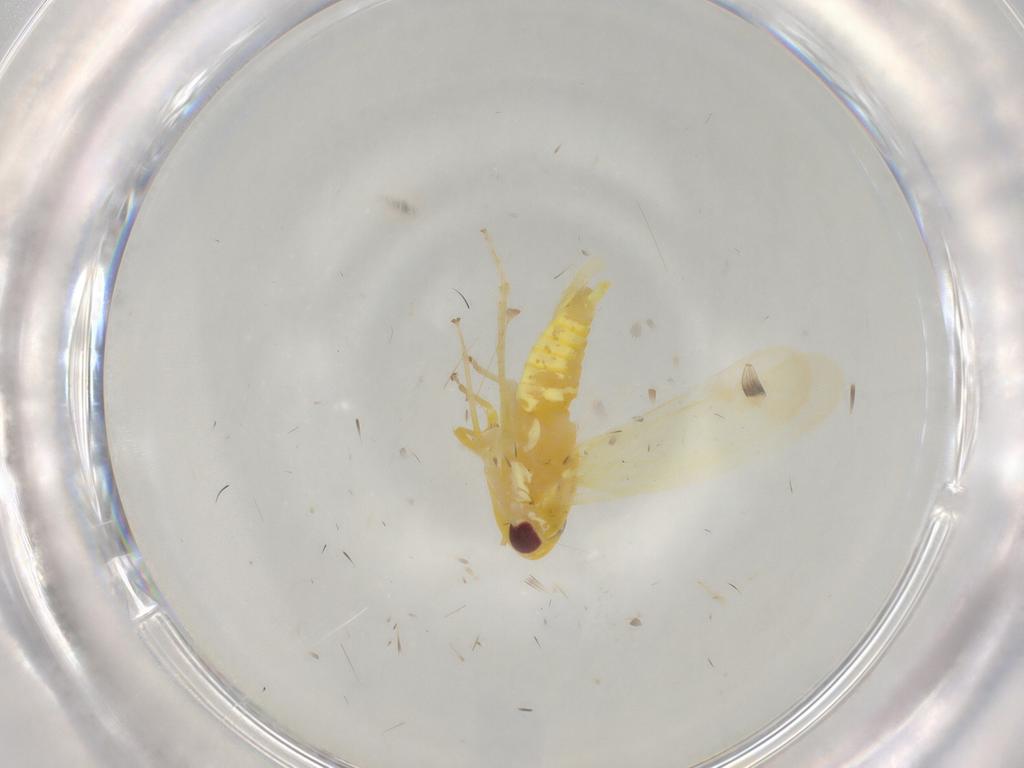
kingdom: Animalia
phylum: Arthropoda
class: Insecta
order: Hemiptera
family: Cicadellidae
